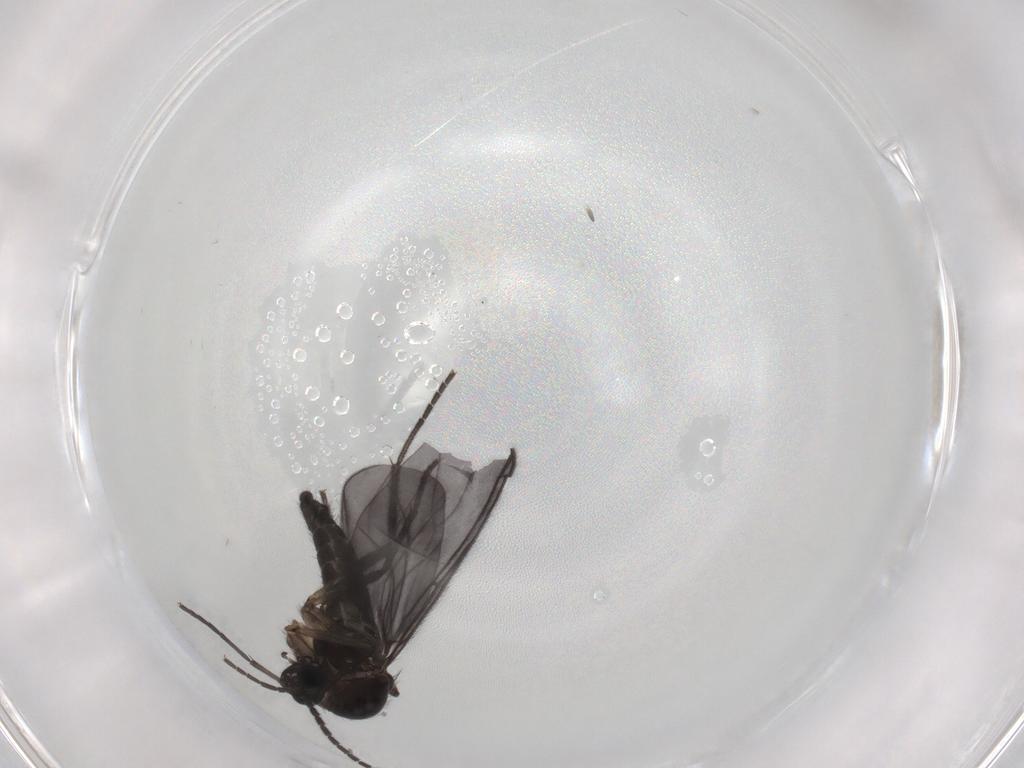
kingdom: Animalia
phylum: Arthropoda
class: Insecta
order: Diptera
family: Sciaridae
